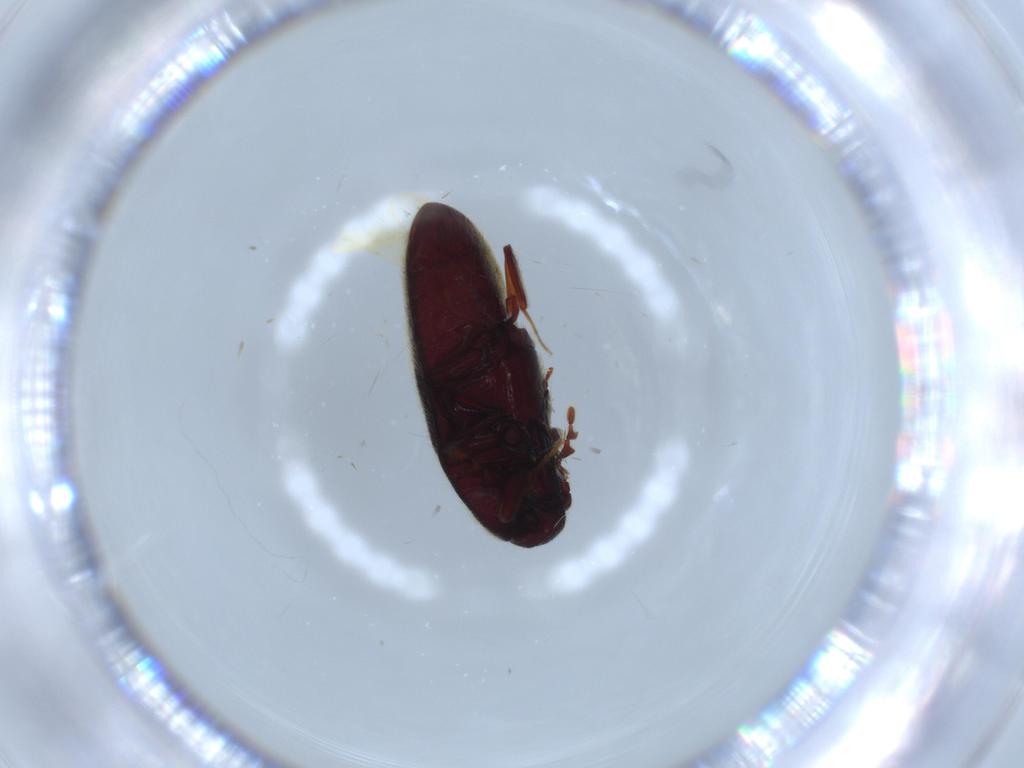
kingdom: Animalia
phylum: Arthropoda
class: Insecta
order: Coleoptera
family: Throscidae
